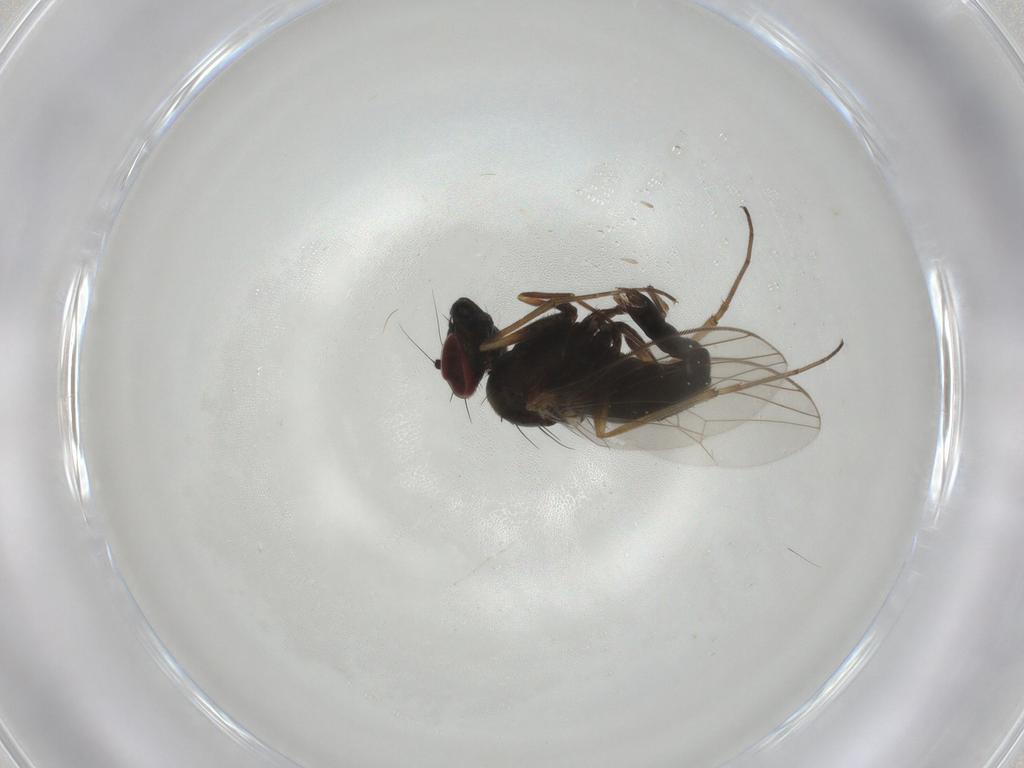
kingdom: Animalia
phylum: Arthropoda
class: Insecta
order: Diptera
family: Dolichopodidae
